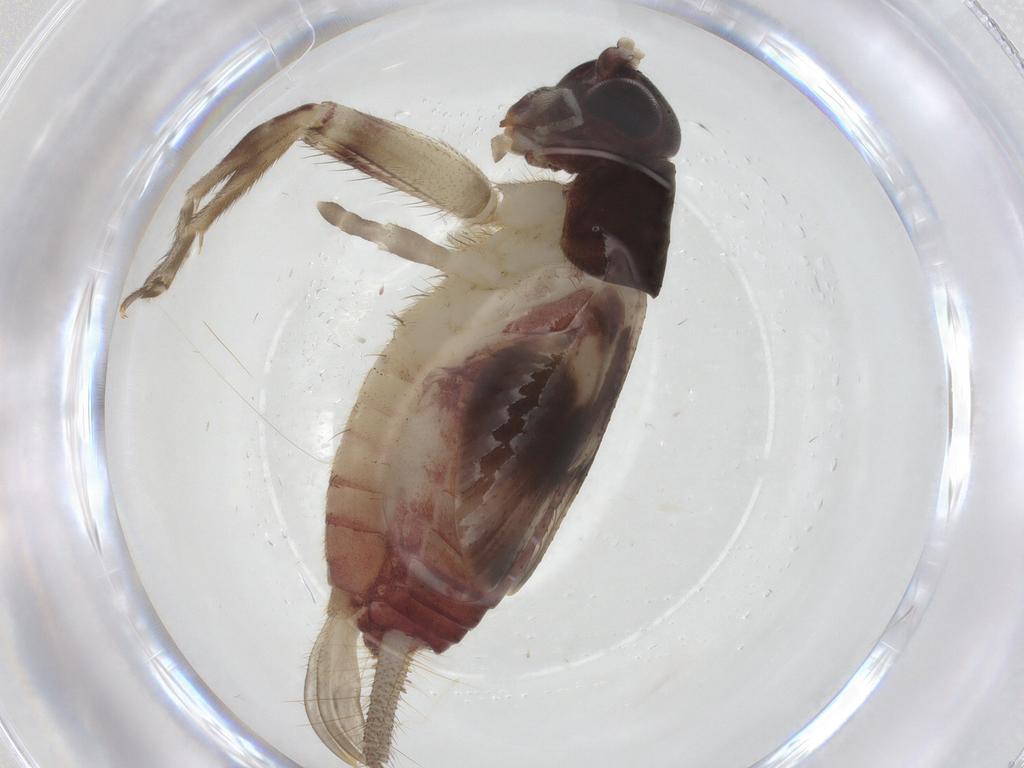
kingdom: Animalia
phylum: Arthropoda
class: Insecta
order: Orthoptera
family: Trigonidiidae
